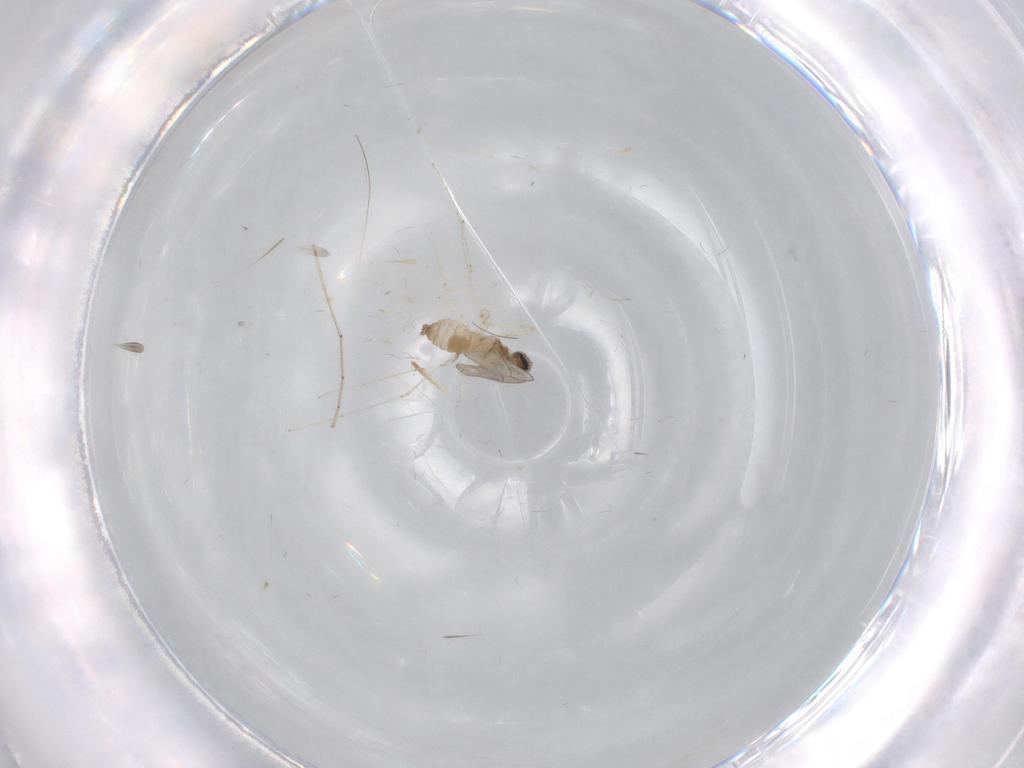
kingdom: Animalia
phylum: Arthropoda
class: Insecta
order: Diptera
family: Cecidomyiidae
